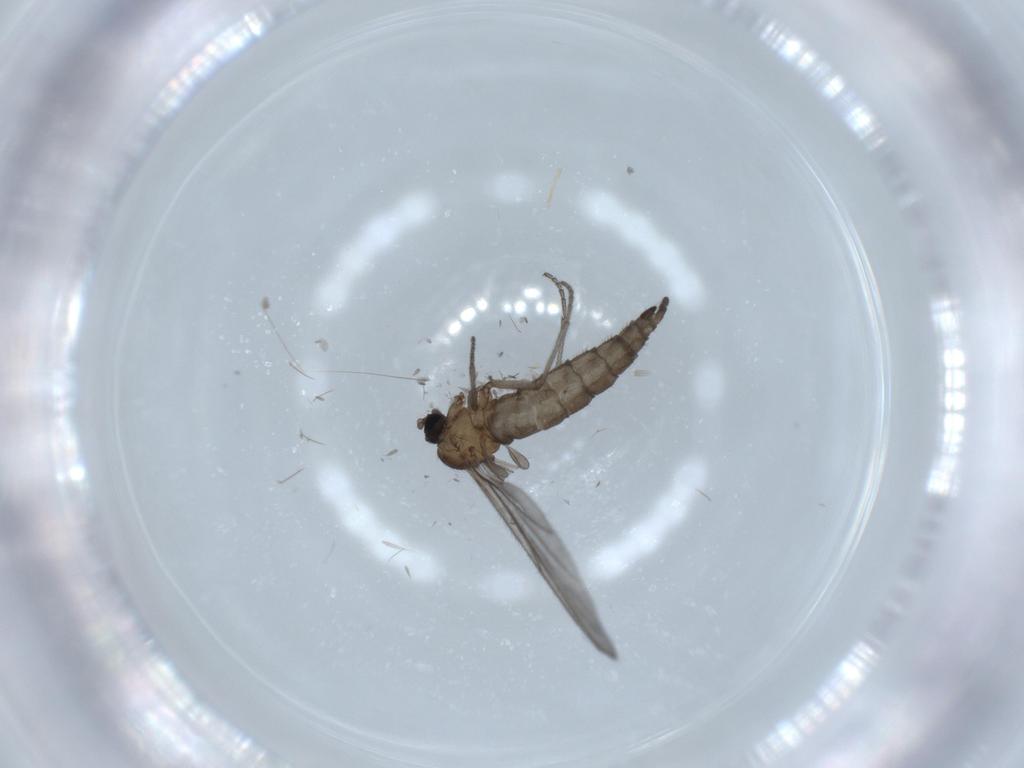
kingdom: Animalia
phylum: Arthropoda
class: Insecta
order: Diptera
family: Sciaridae
